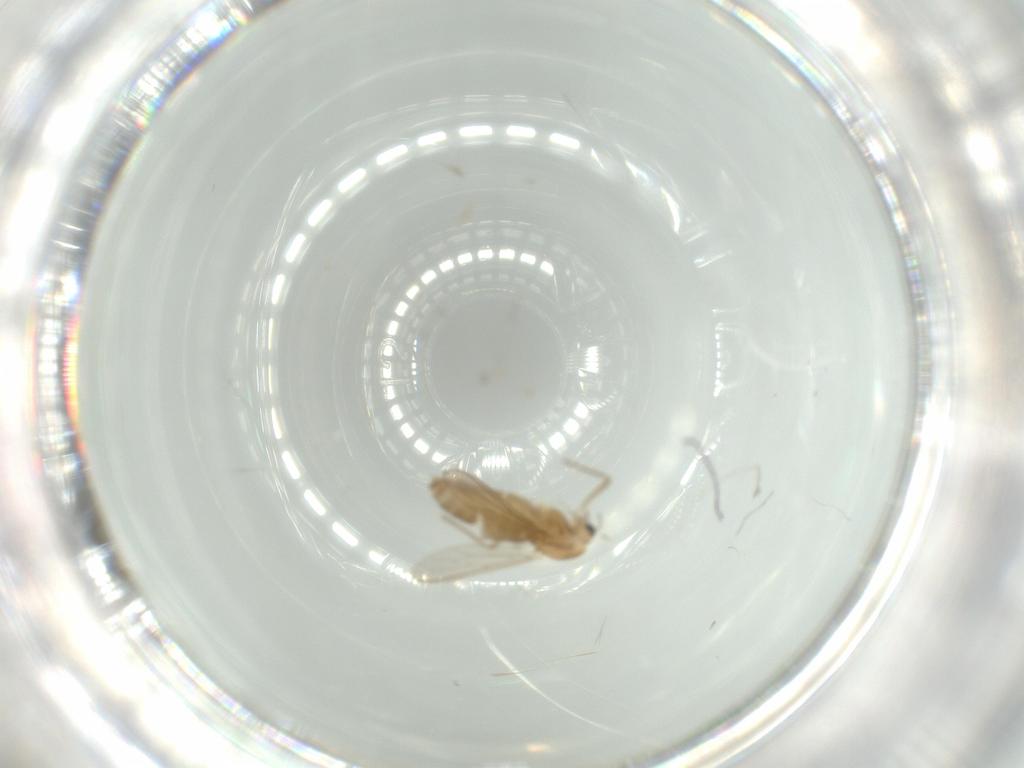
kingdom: Animalia
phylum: Arthropoda
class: Insecta
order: Diptera
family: Chironomidae
